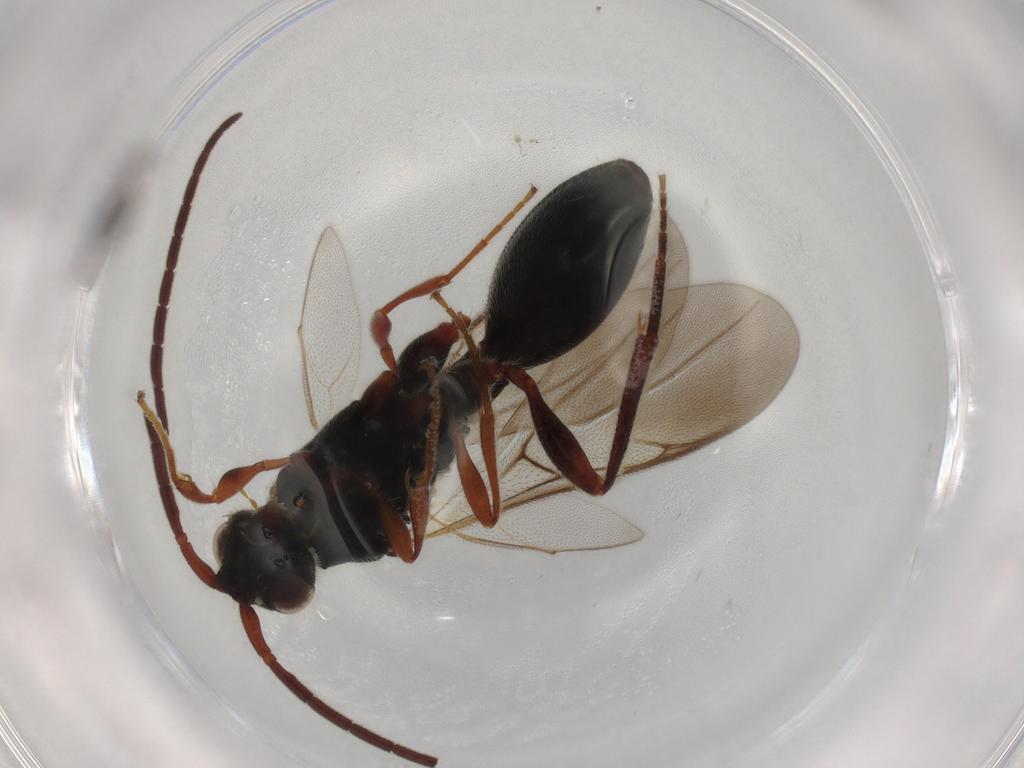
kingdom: Animalia
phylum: Arthropoda
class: Insecta
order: Hymenoptera
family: Diapriidae
